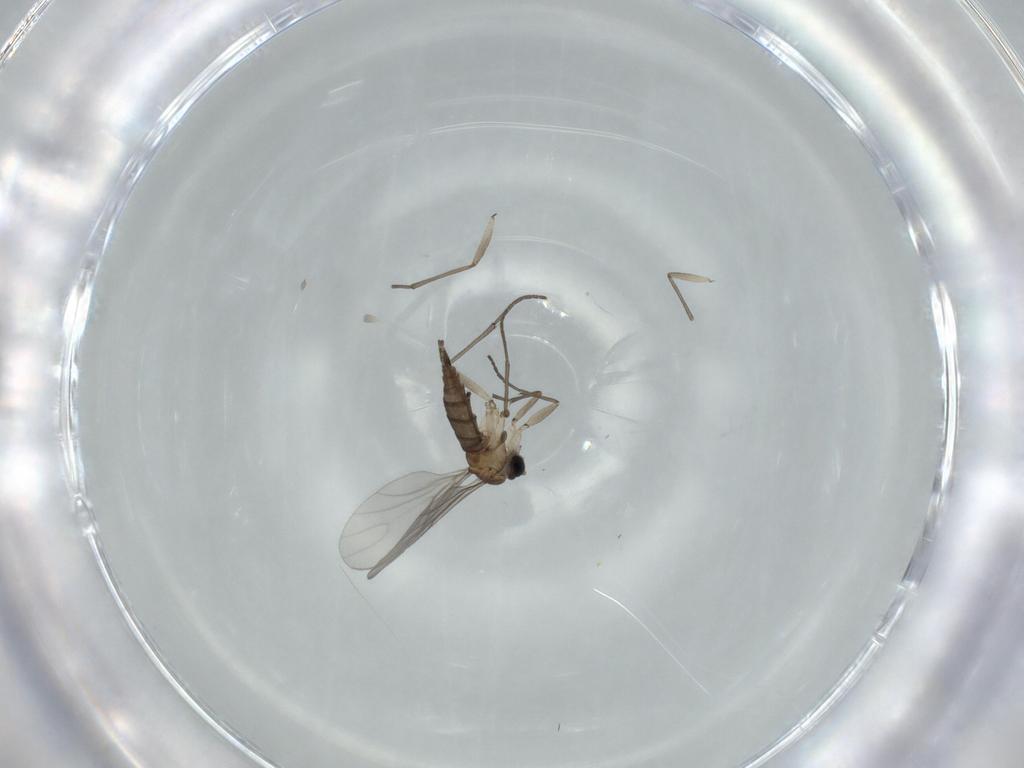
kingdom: Animalia
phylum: Arthropoda
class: Insecta
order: Diptera
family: Sciaridae
